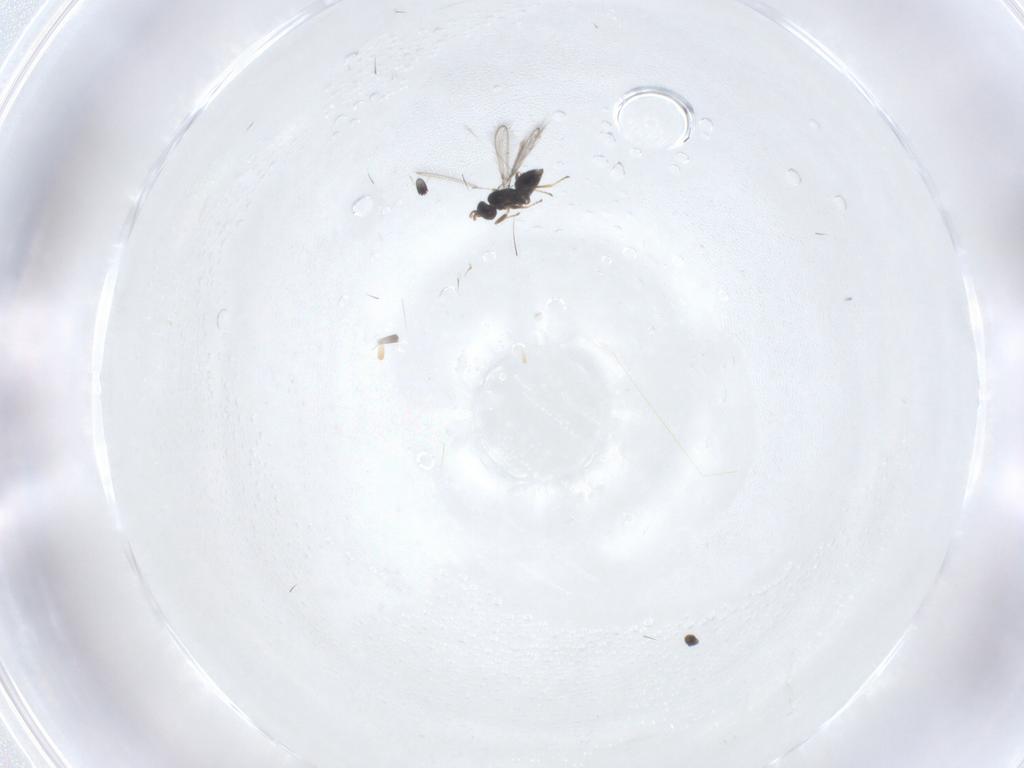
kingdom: Animalia
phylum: Arthropoda
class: Insecta
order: Hymenoptera
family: Mymaridae
